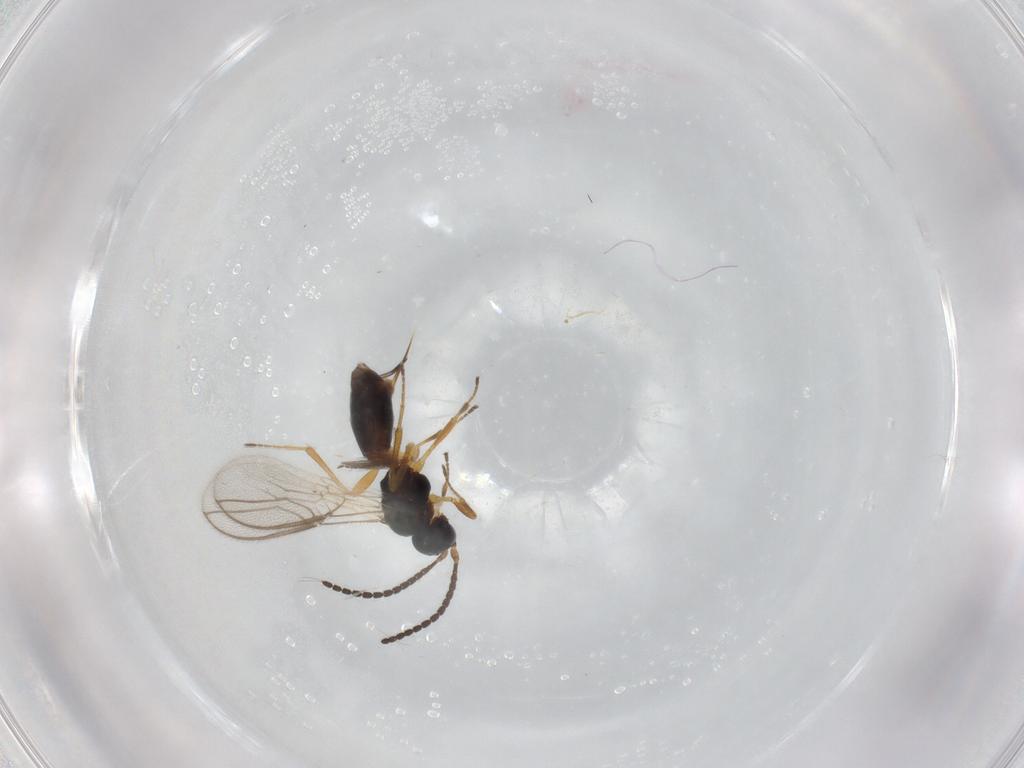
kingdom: Animalia
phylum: Arthropoda
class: Insecta
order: Hymenoptera
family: Braconidae
